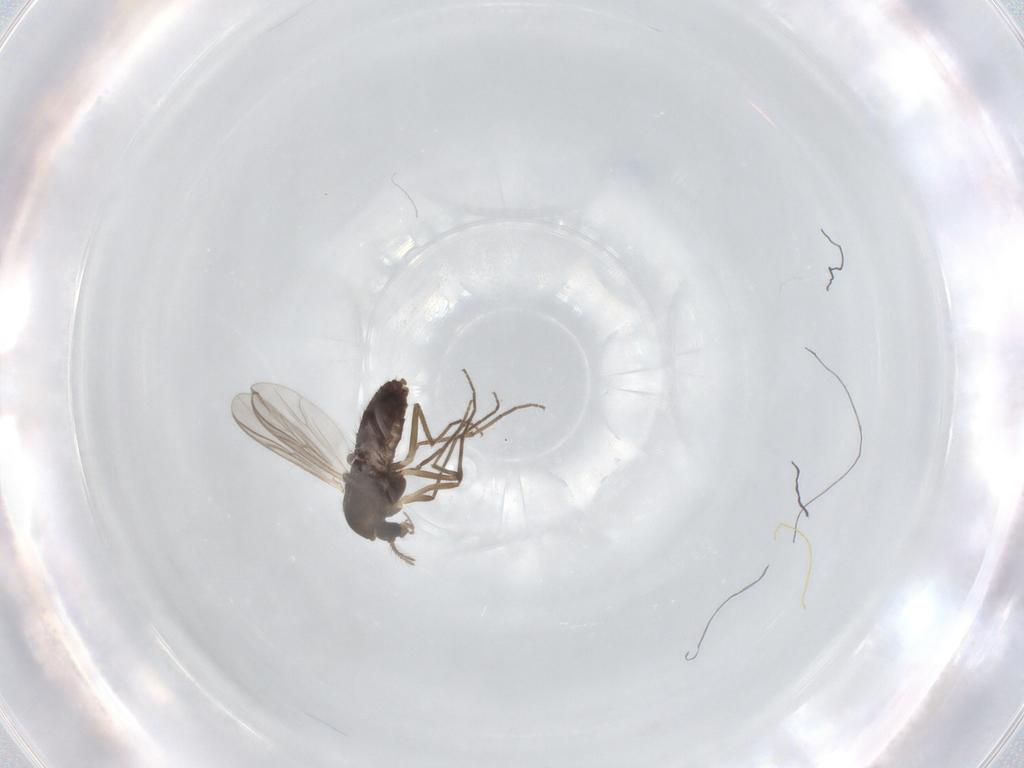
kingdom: Animalia
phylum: Arthropoda
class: Insecta
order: Diptera
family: Chironomidae
